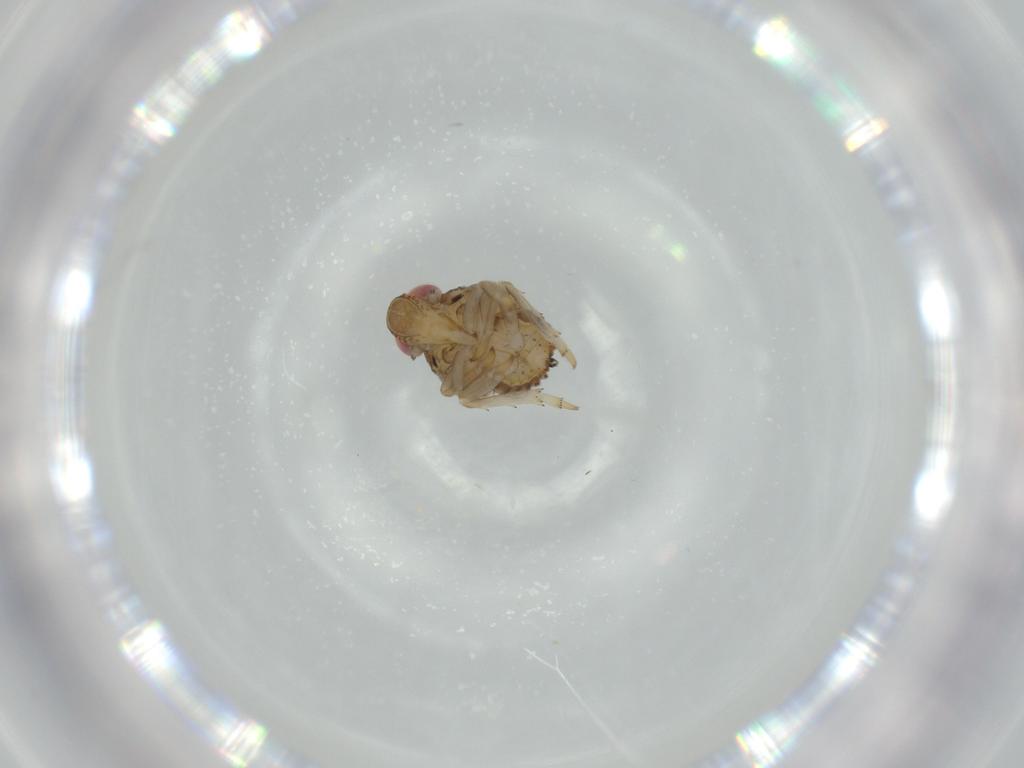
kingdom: Animalia
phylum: Arthropoda
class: Insecta
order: Hemiptera
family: Issidae
